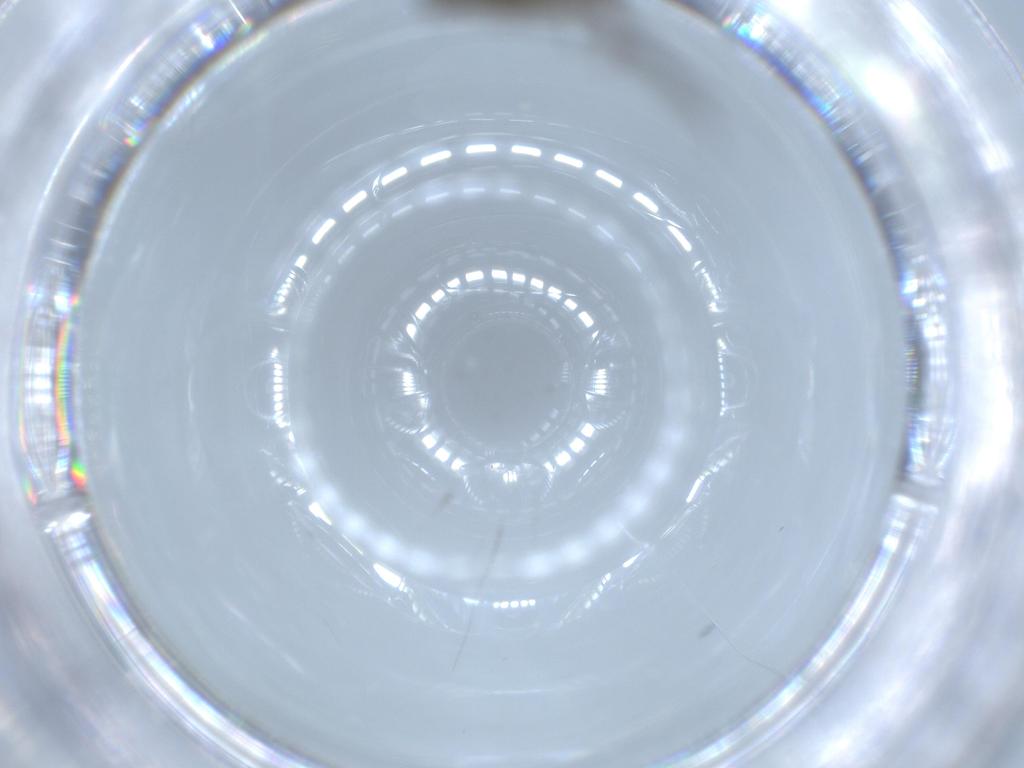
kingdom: Animalia
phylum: Arthropoda
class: Insecta
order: Diptera
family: Chironomidae
